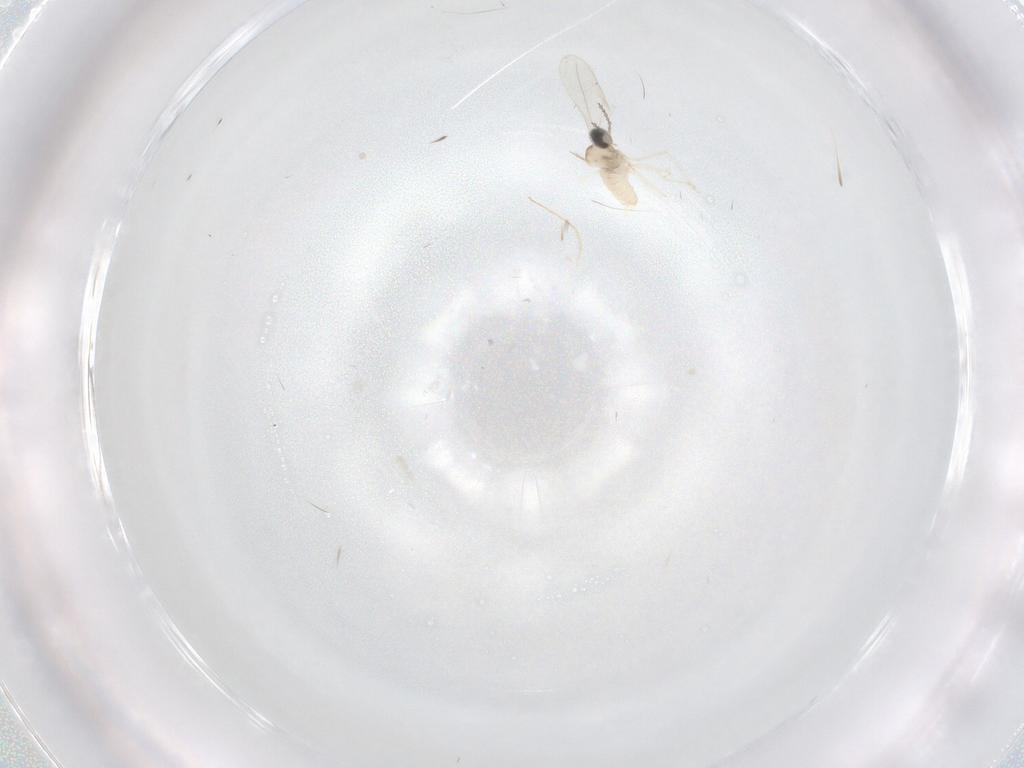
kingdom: Animalia
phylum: Arthropoda
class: Insecta
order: Diptera
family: Cecidomyiidae
